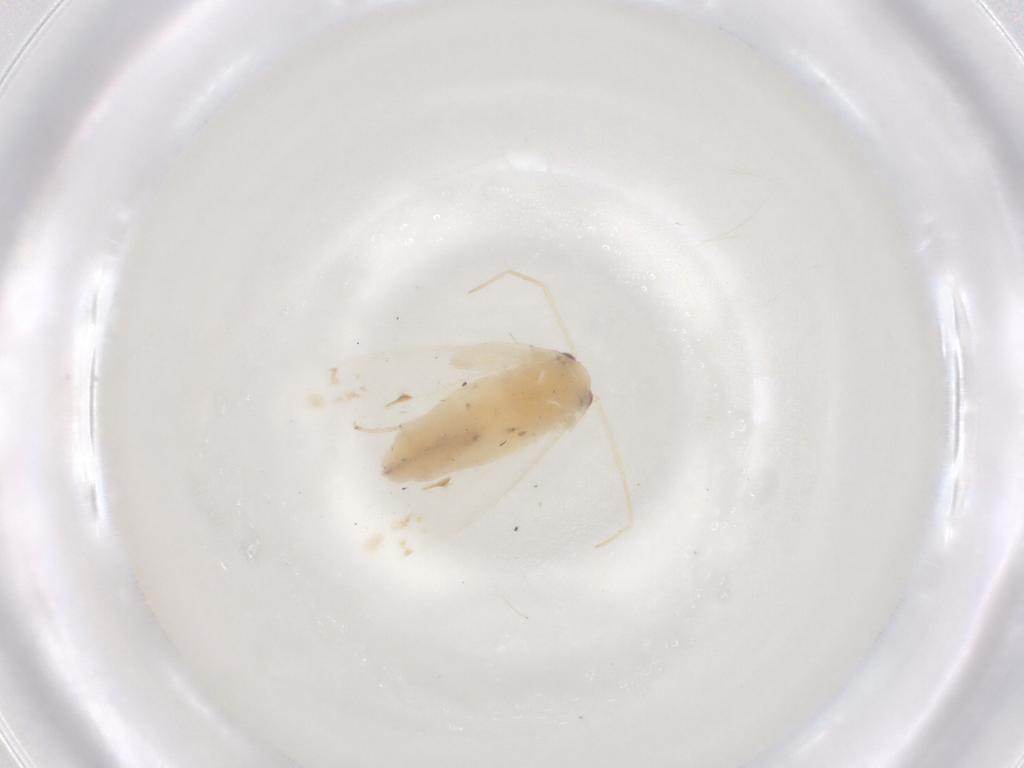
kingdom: Animalia
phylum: Arthropoda
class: Insecta
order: Hemiptera
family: Miridae
